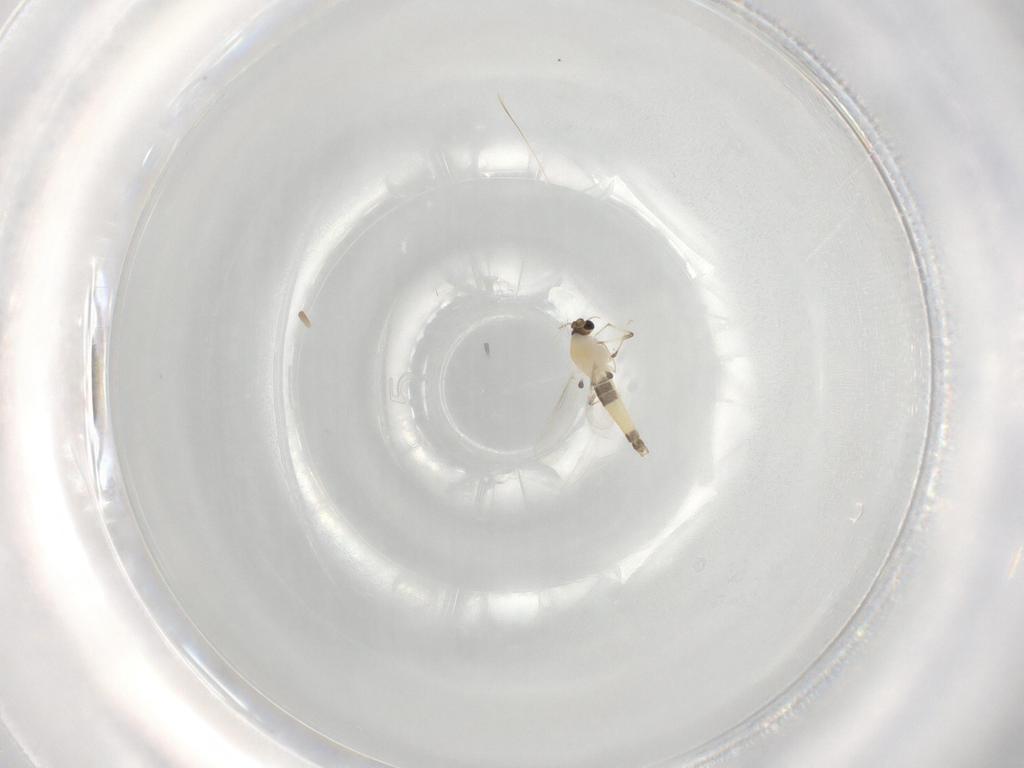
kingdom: Animalia
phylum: Arthropoda
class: Insecta
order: Diptera
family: Chironomidae
